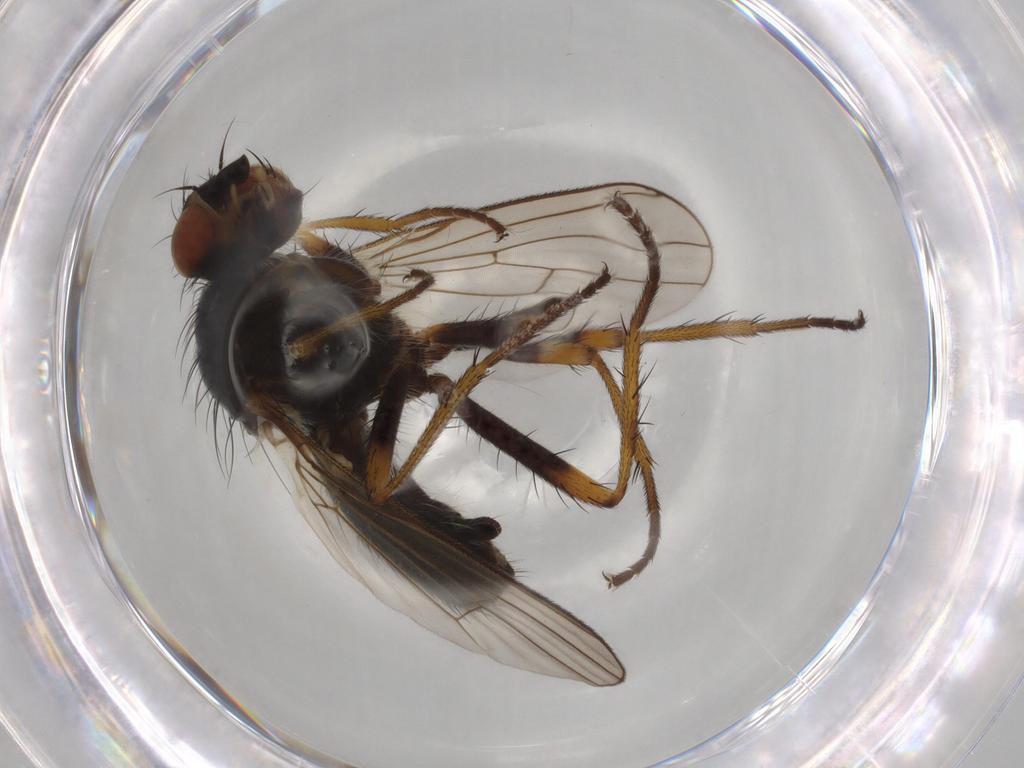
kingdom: Animalia
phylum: Arthropoda
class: Insecta
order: Diptera
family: Scathophagidae
